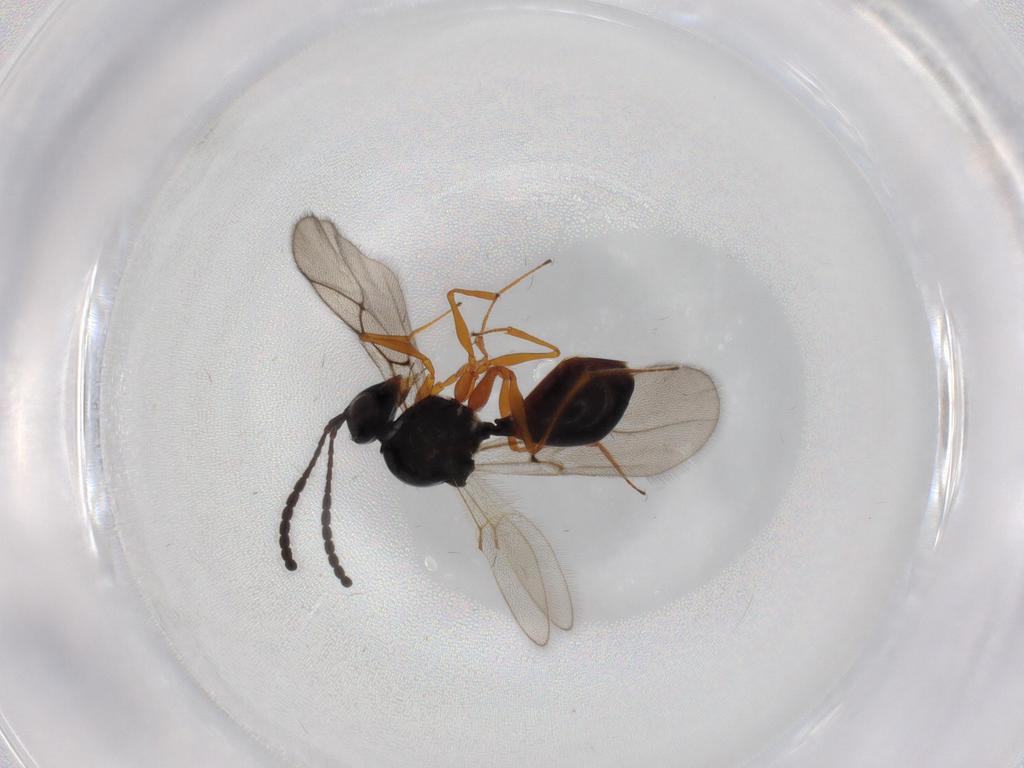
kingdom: Animalia
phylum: Arthropoda
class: Insecta
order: Hymenoptera
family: Figitidae
